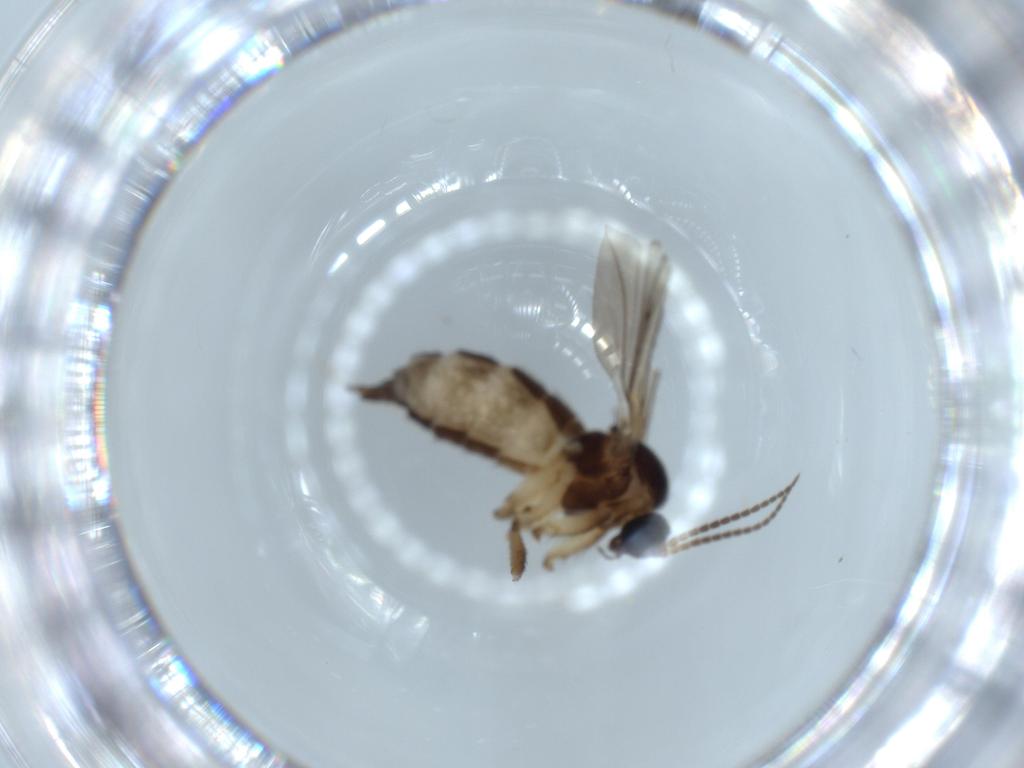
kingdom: Animalia
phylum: Arthropoda
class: Insecta
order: Diptera
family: Sciaridae
